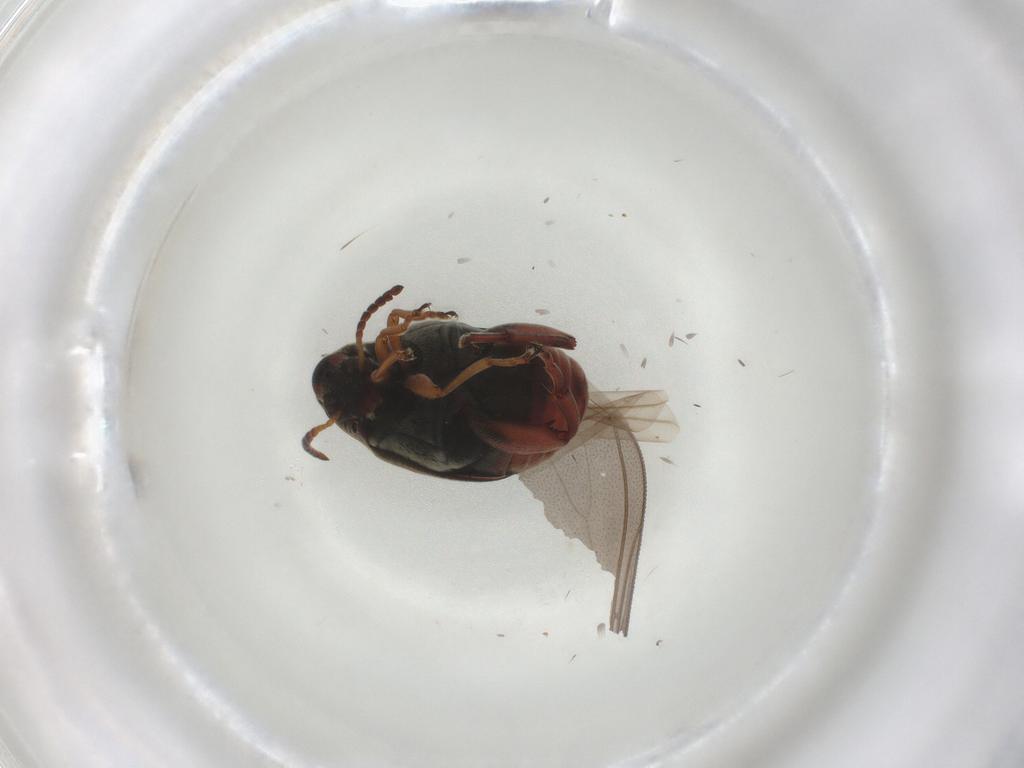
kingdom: Animalia
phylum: Arthropoda
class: Insecta
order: Coleoptera
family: Chrysomelidae
